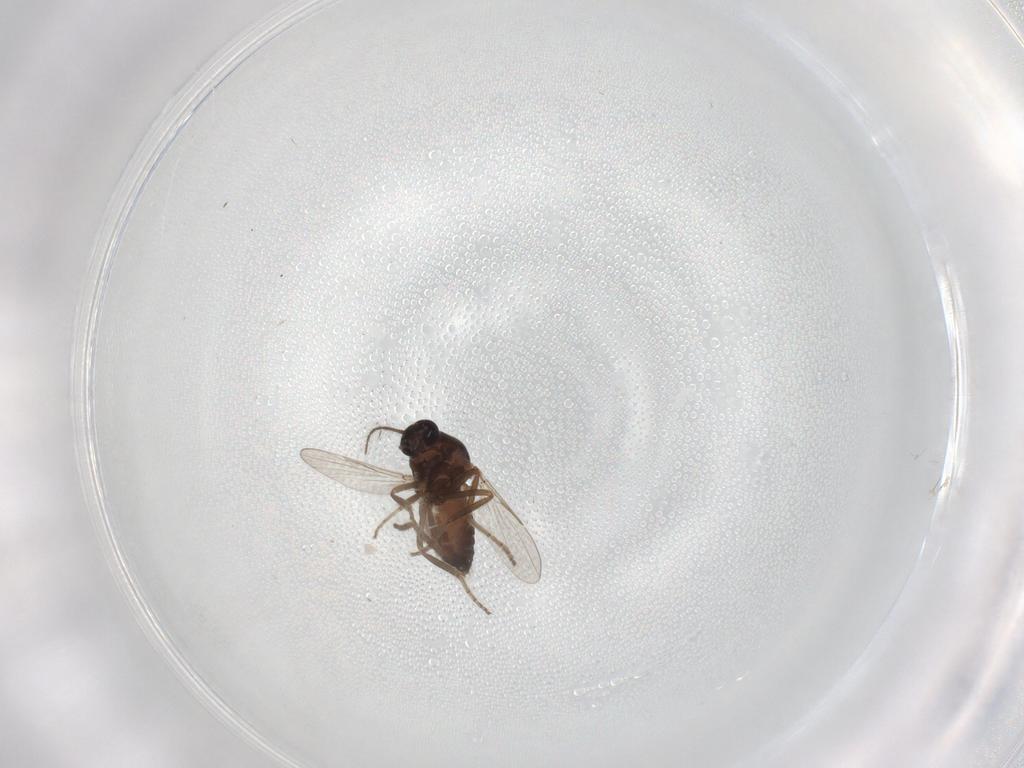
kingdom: Animalia
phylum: Arthropoda
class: Insecta
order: Diptera
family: Ceratopogonidae
